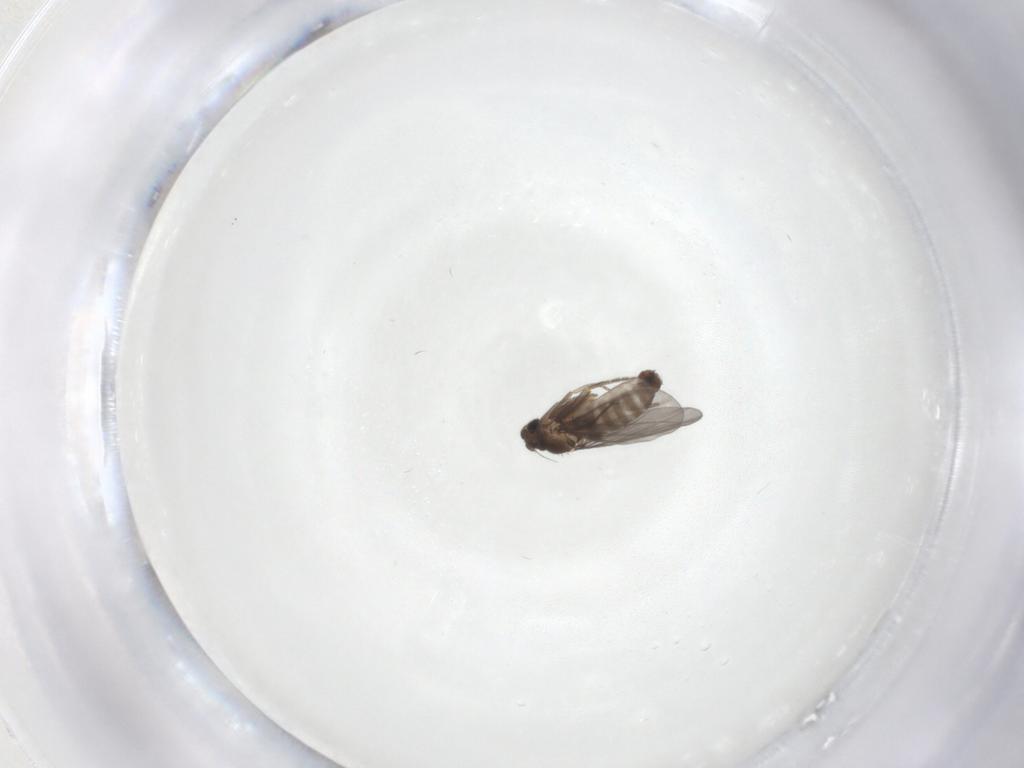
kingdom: Animalia
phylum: Arthropoda
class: Insecta
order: Diptera
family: Psychodidae
